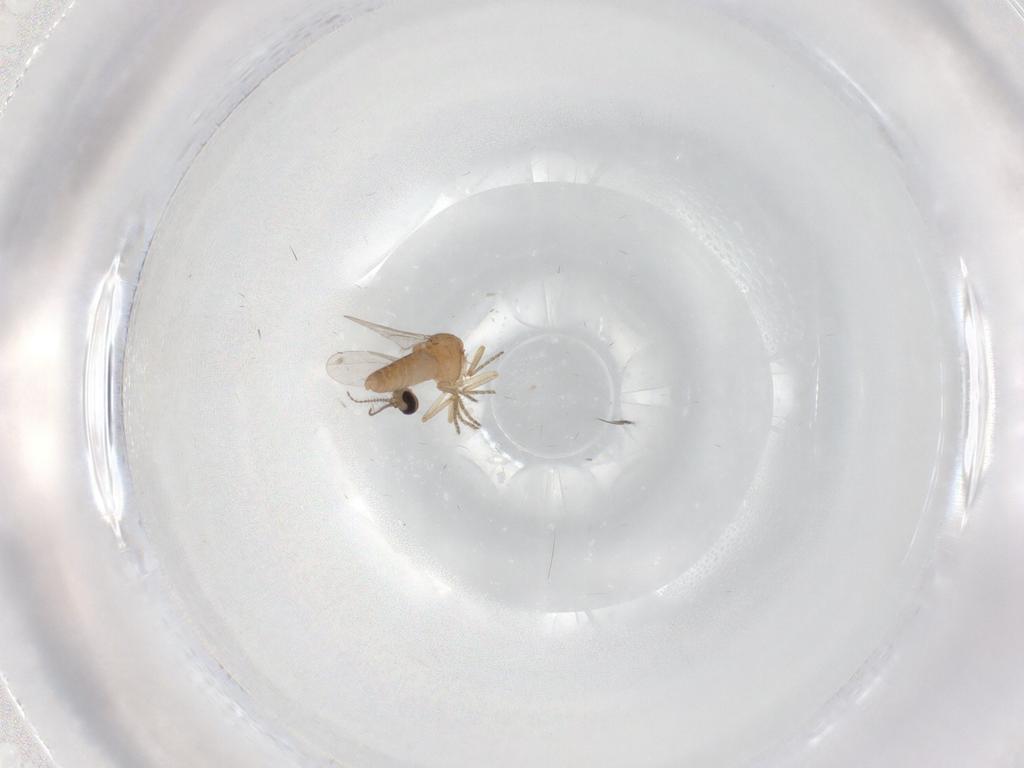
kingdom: Animalia
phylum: Arthropoda
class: Insecta
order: Diptera
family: Ceratopogonidae
